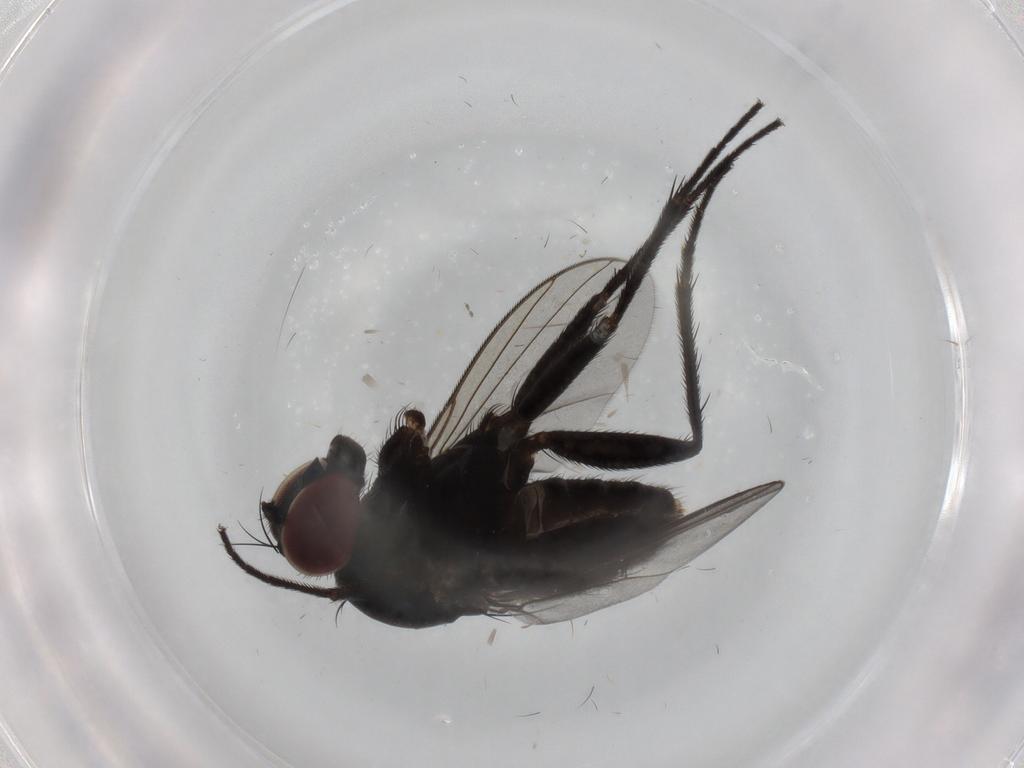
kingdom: Animalia
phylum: Arthropoda
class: Insecta
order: Diptera
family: Dolichopodidae
